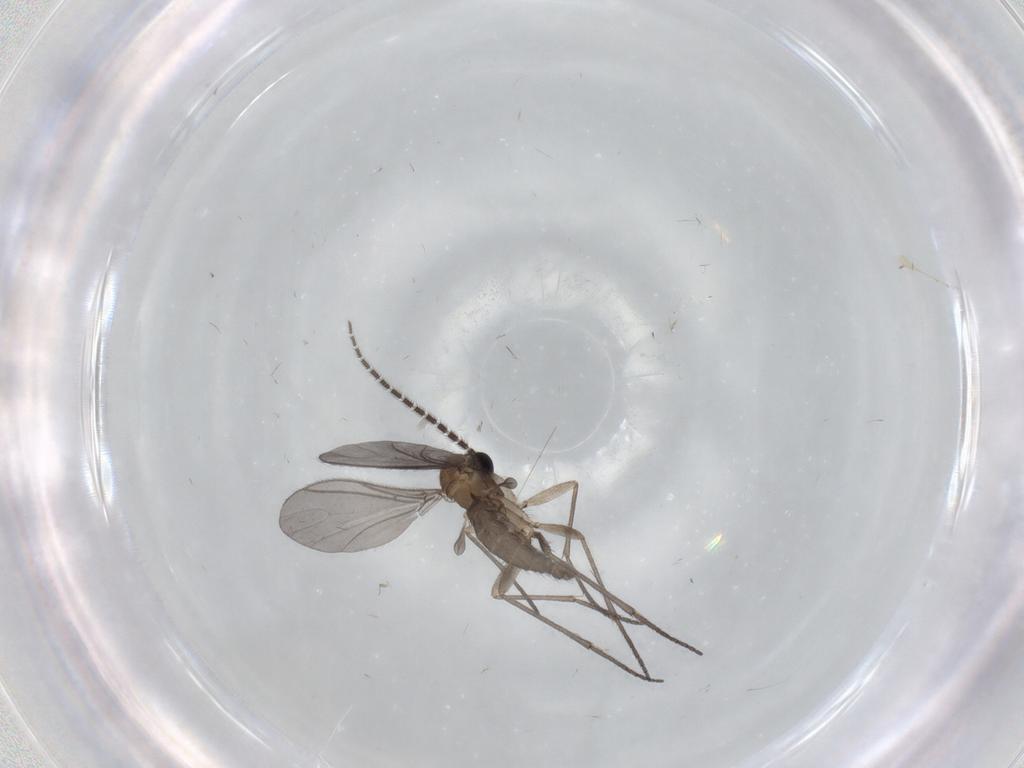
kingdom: Animalia
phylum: Arthropoda
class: Insecta
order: Diptera
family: Sciaridae
